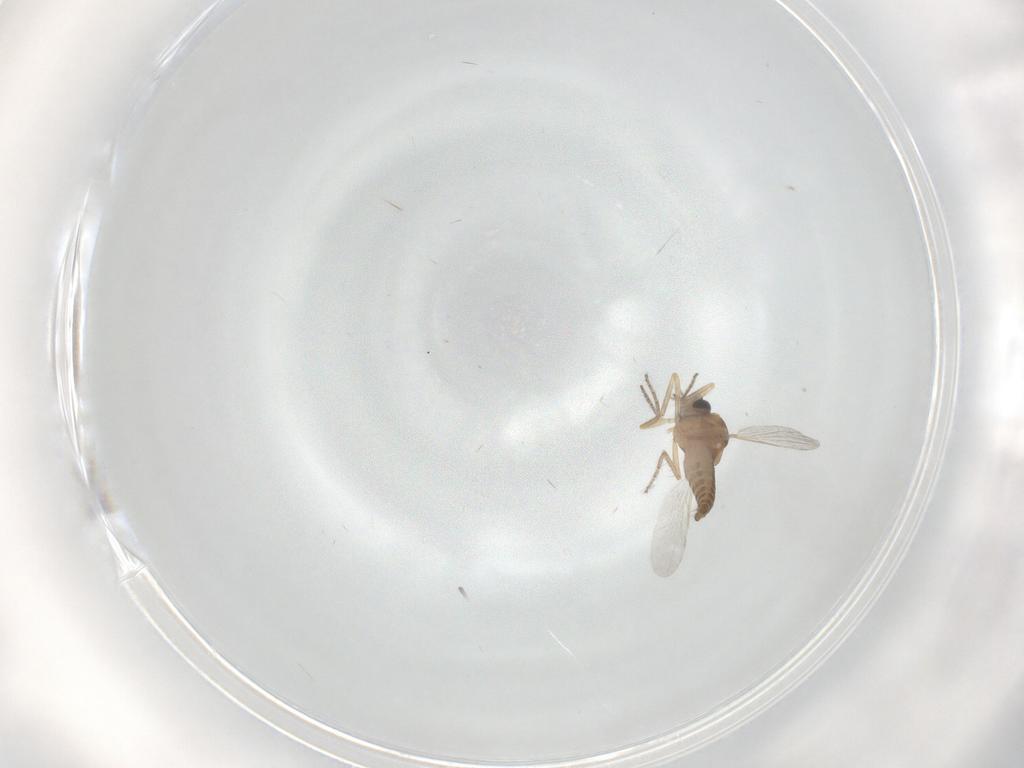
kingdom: Animalia
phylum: Arthropoda
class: Insecta
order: Diptera
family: Ceratopogonidae
